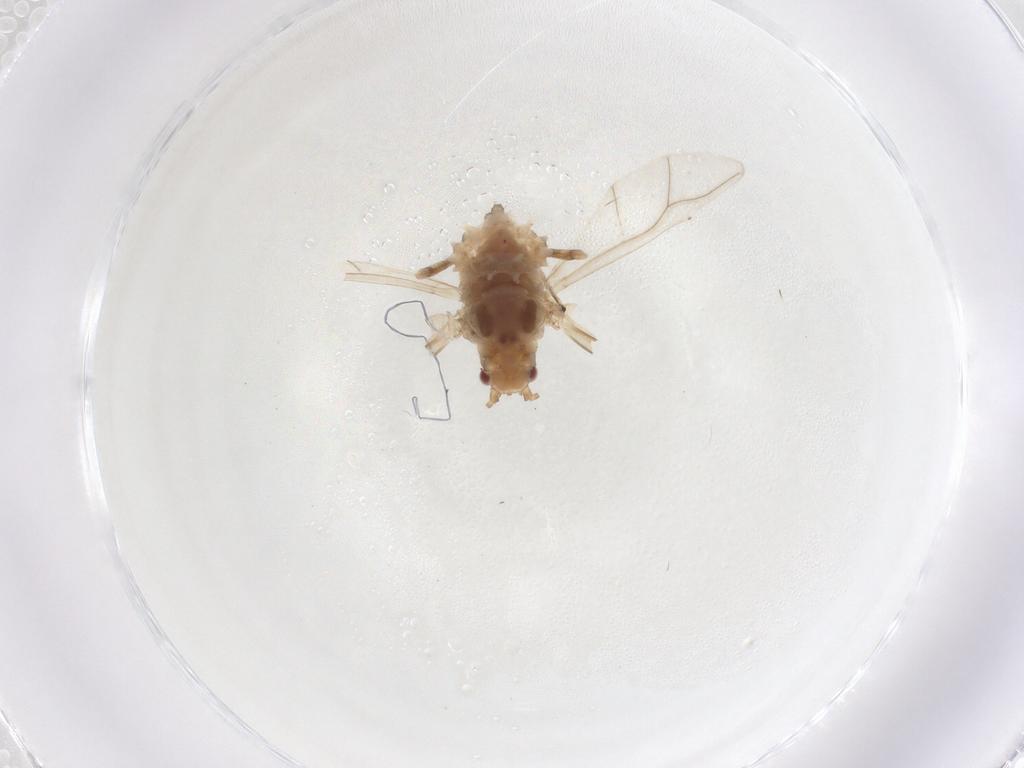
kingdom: Animalia
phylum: Arthropoda
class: Insecta
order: Hemiptera
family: Aphididae
